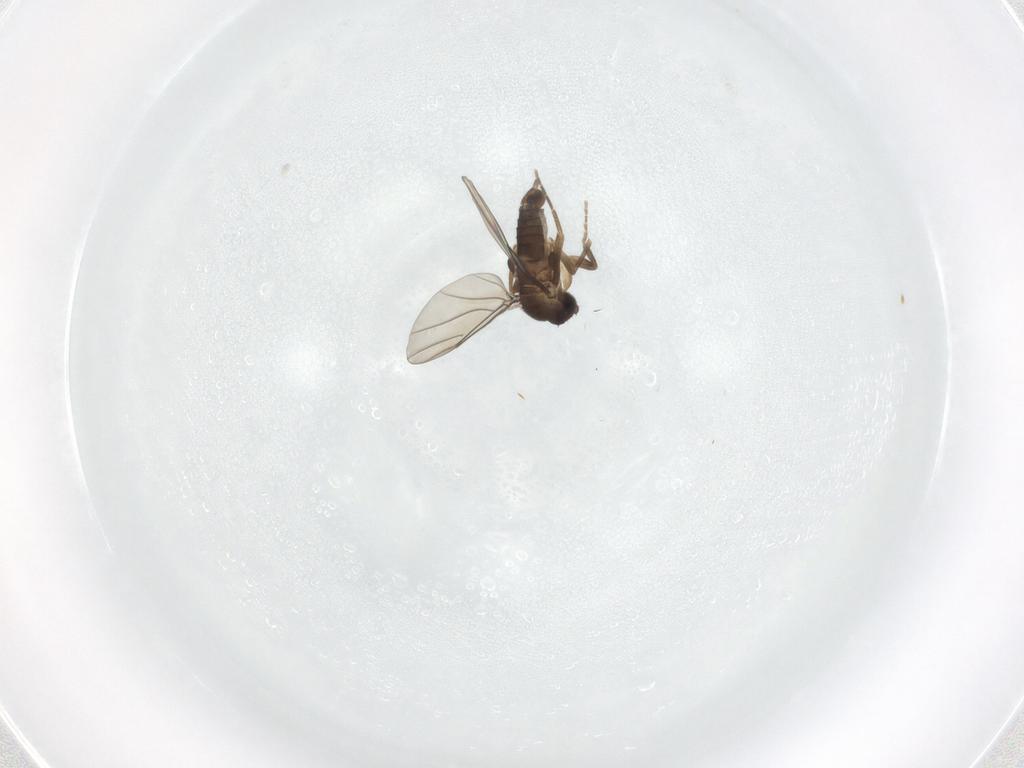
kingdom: Animalia
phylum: Arthropoda
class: Insecta
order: Diptera
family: Phoridae
